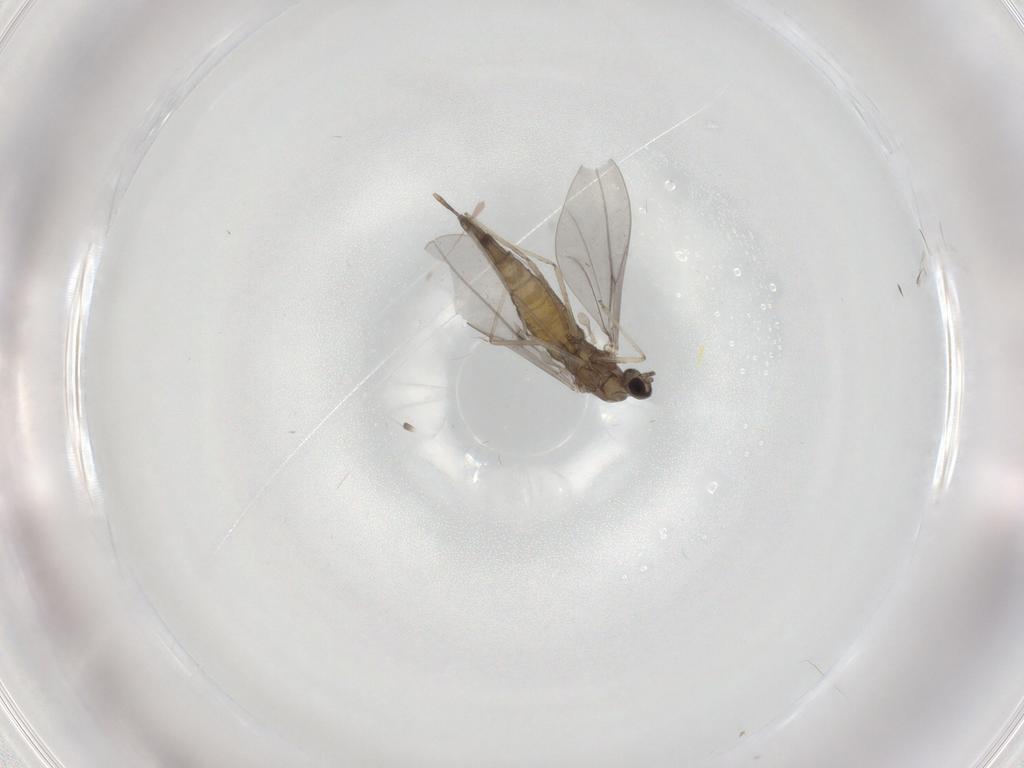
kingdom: Animalia
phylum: Arthropoda
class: Insecta
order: Diptera
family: Cecidomyiidae
